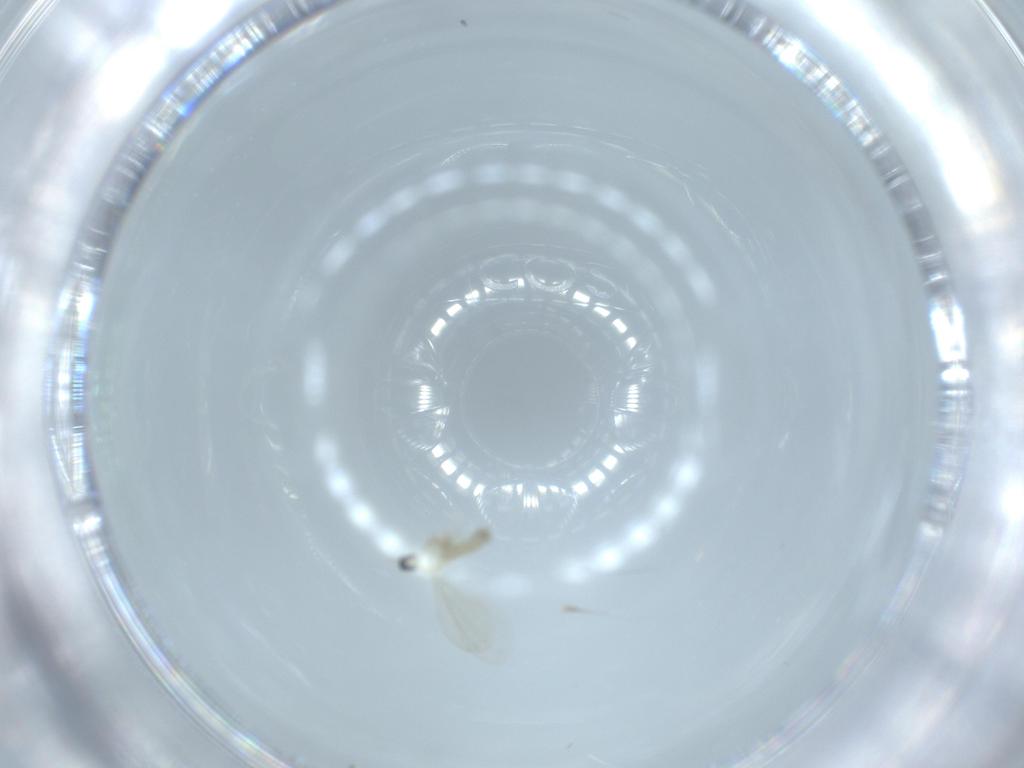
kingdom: Animalia
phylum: Arthropoda
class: Insecta
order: Diptera
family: Cecidomyiidae
